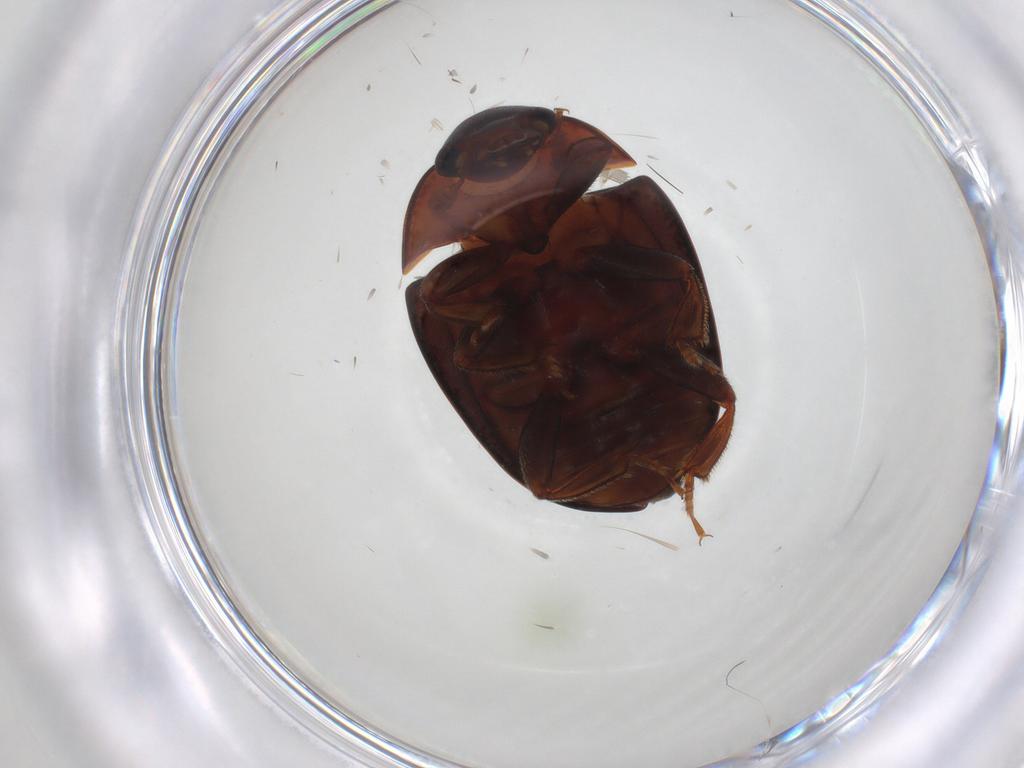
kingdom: Animalia
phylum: Arthropoda
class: Insecta
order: Coleoptera
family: Nitidulidae
